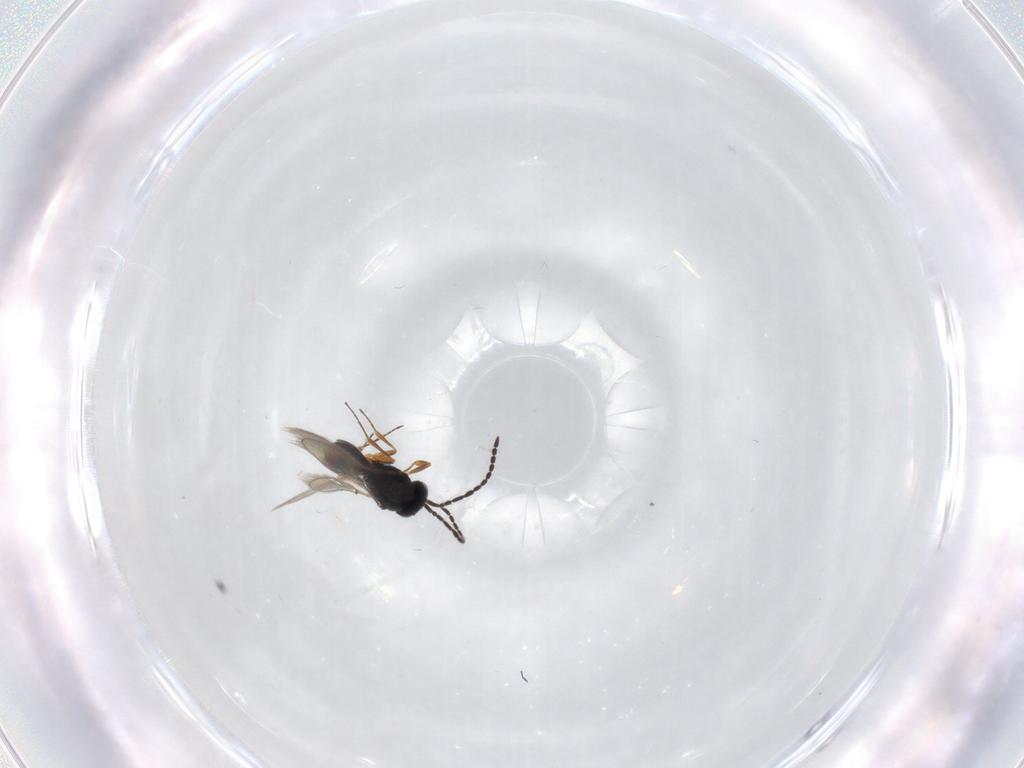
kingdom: Animalia
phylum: Arthropoda
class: Insecta
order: Hymenoptera
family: Scelionidae
